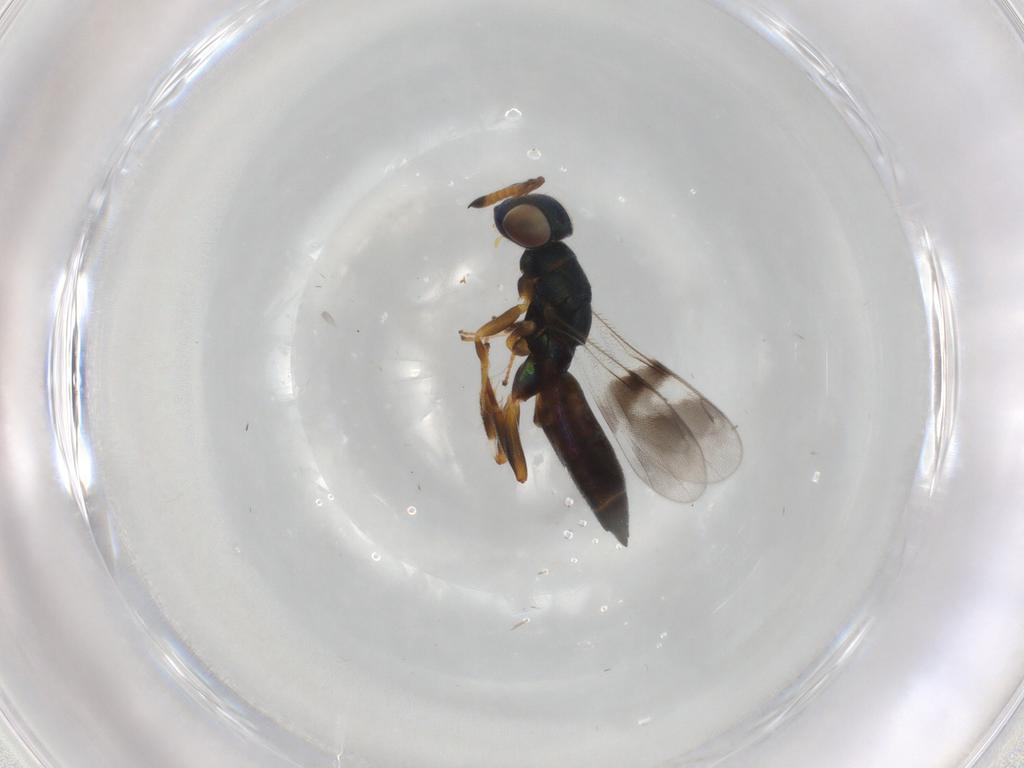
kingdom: Animalia
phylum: Arthropoda
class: Insecta
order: Hymenoptera
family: Cleonyminae
